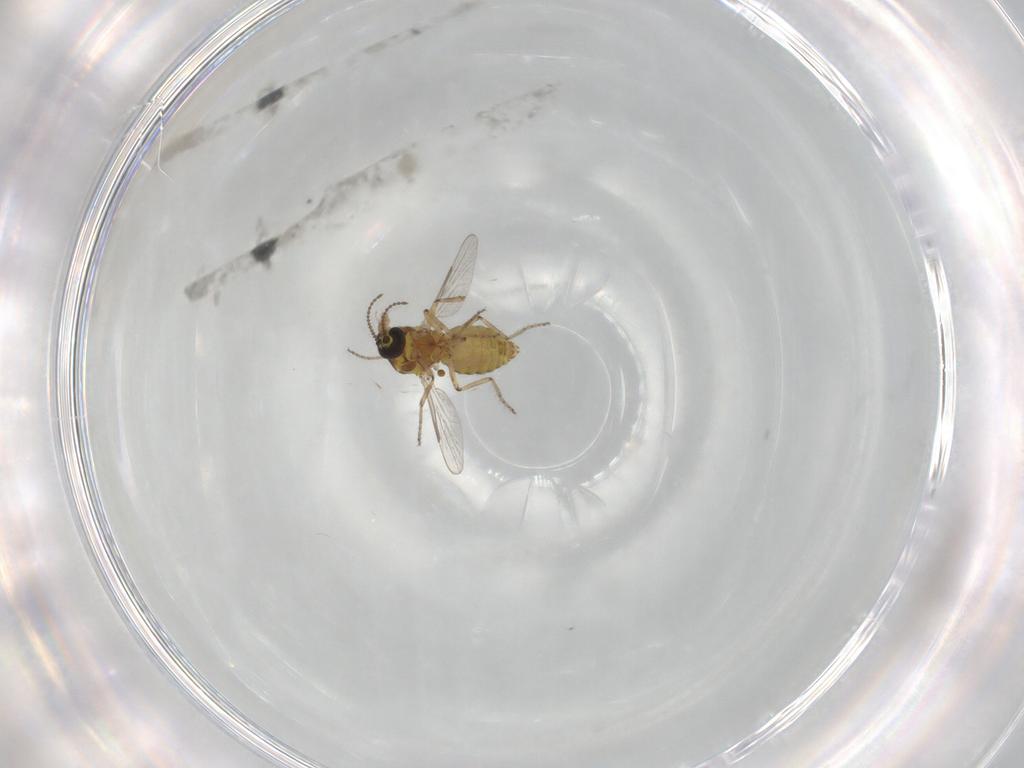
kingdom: Animalia
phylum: Arthropoda
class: Insecta
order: Diptera
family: Ceratopogonidae
